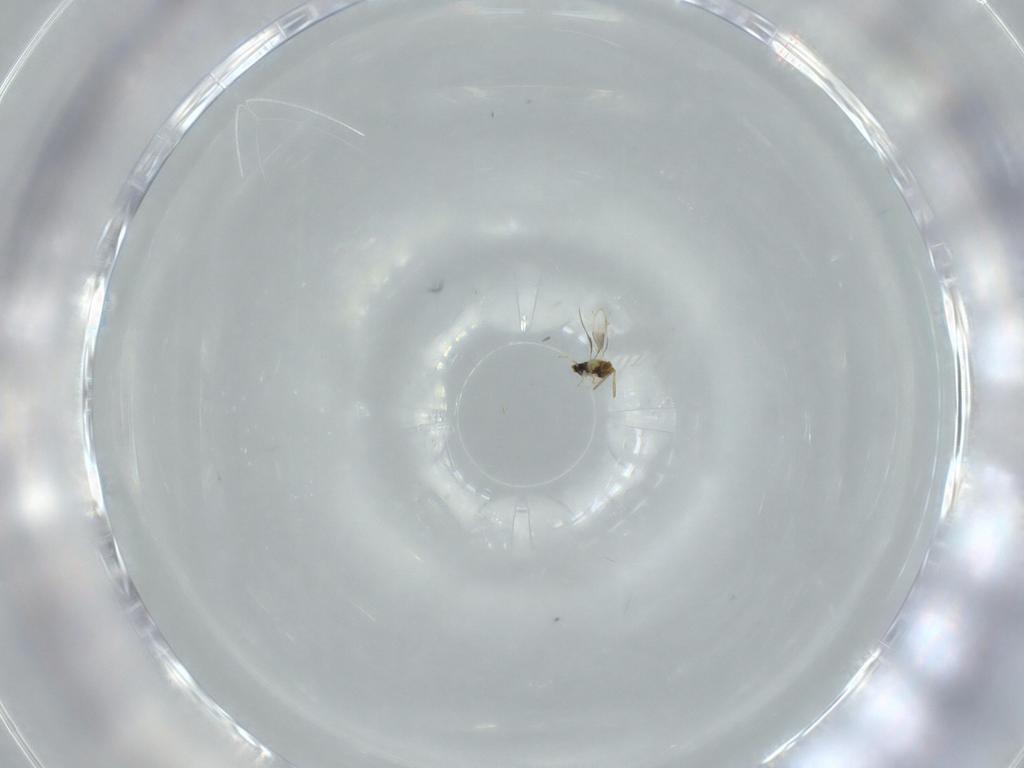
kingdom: Animalia
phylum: Arthropoda
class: Insecta
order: Hymenoptera
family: Aphelinidae
